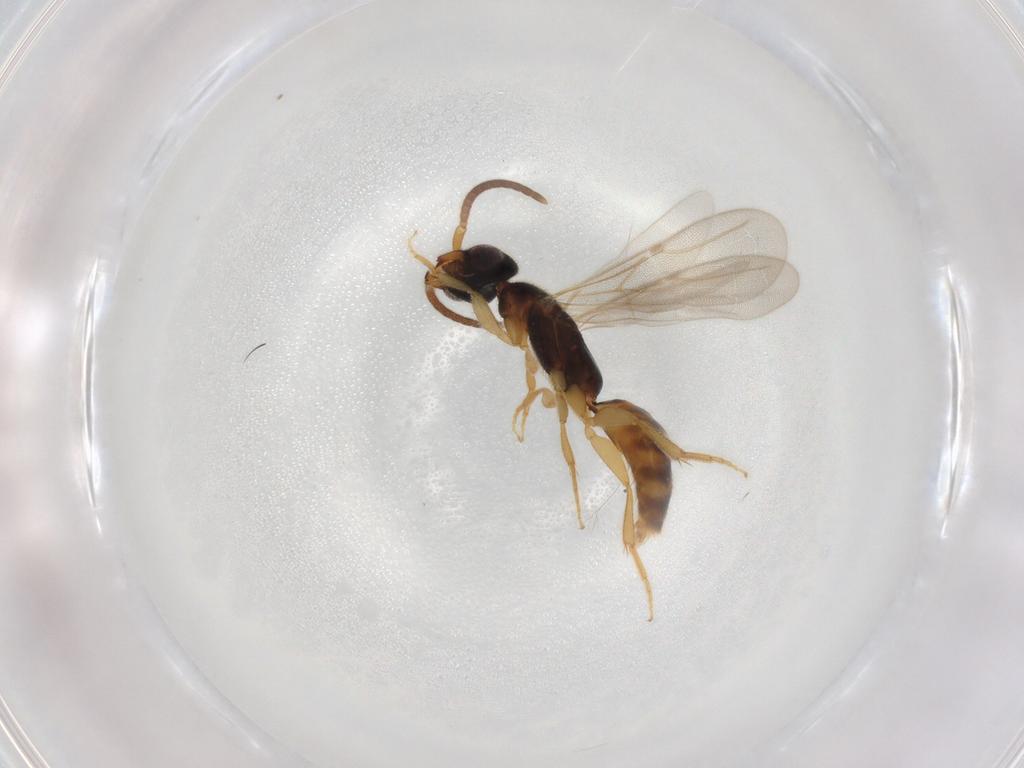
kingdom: Animalia
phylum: Arthropoda
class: Insecta
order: Hymenoptera
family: Bethylidae
